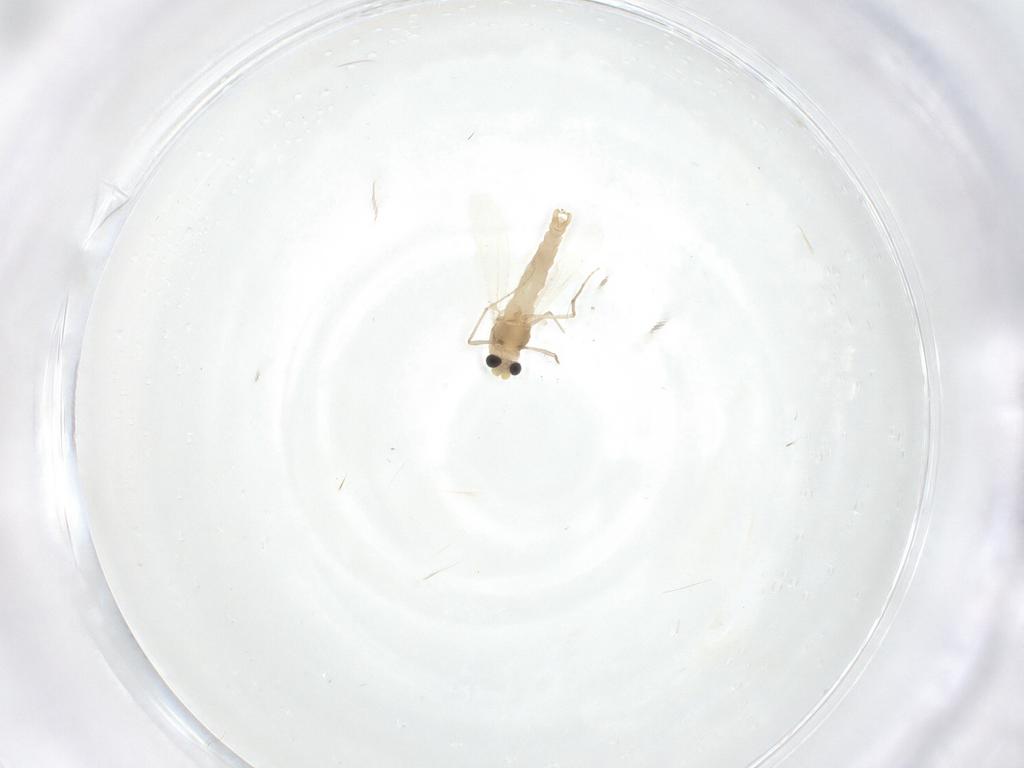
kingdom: Animalia
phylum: Arthropoda
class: Insecta
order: Diptera
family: Chironomidae
